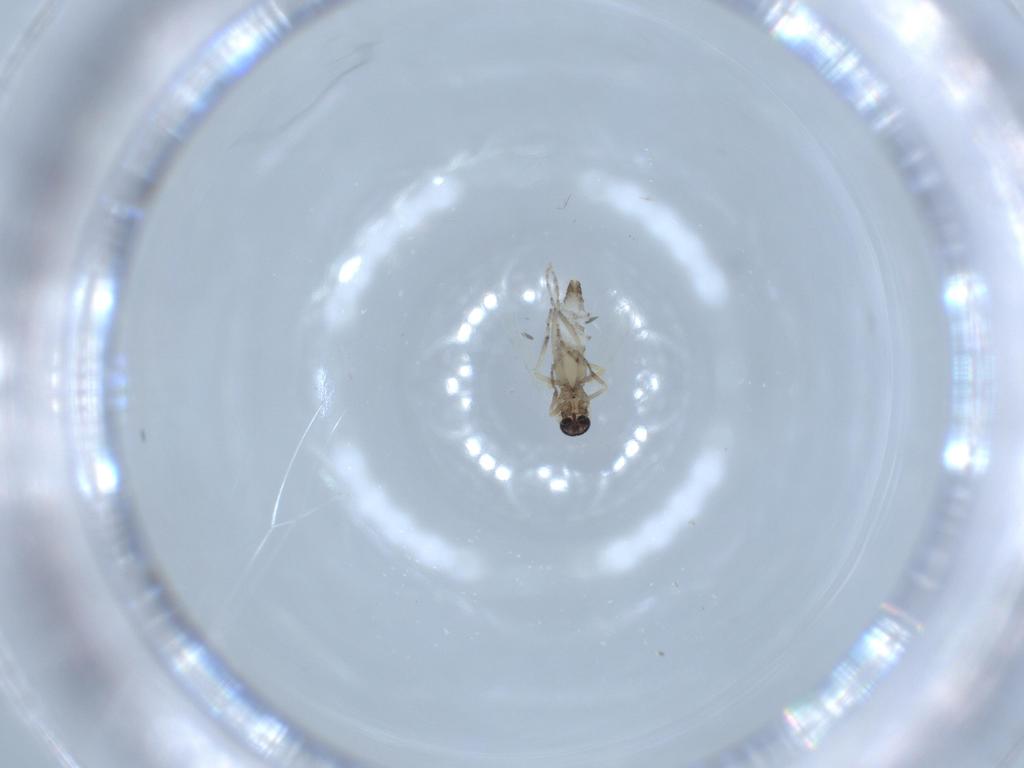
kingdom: Animalia
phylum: Arthropoda
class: Insecta
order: Diptera
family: Ceratopogonidae
